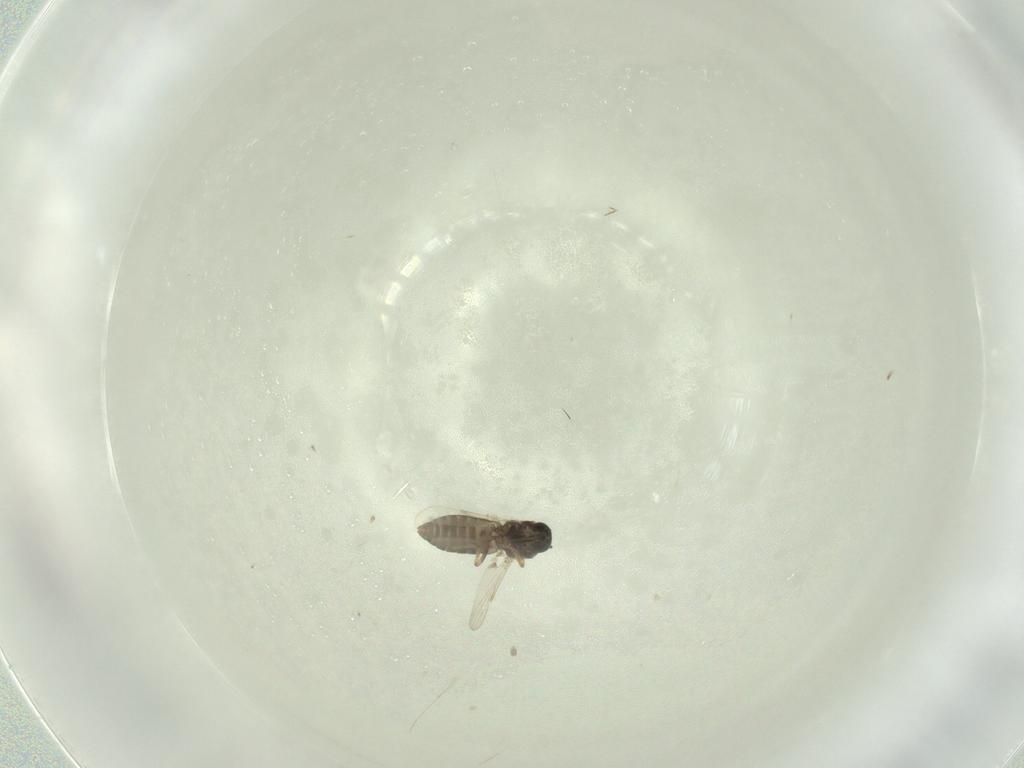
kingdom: Animalia
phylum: Arthropoda
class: Insecta
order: Diptera
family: Ceratopogonidae
